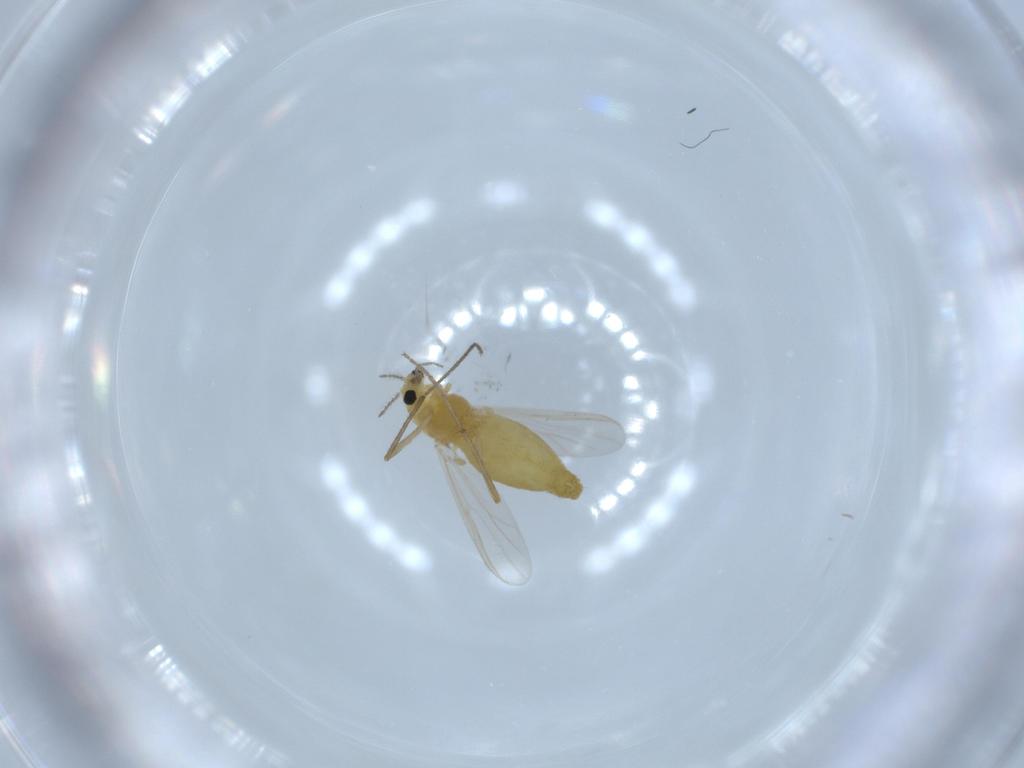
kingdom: Animalia
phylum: Arthropoda
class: Insecta
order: Diptera
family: Chironomidae
